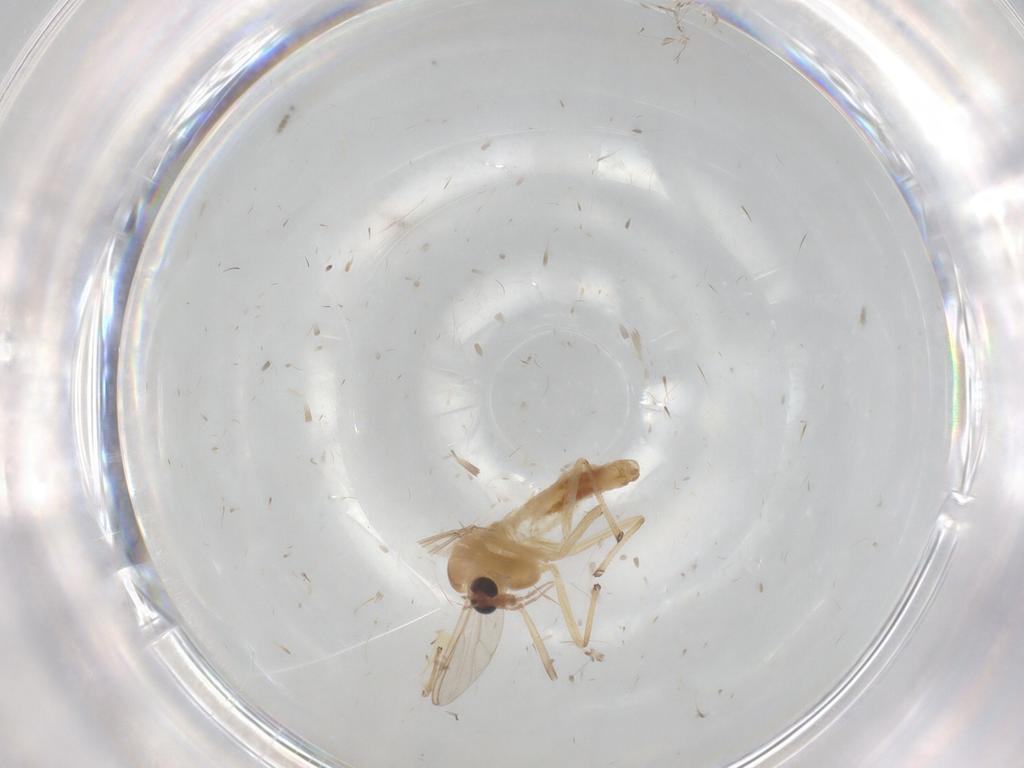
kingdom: Animalia
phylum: Arthropoda
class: Insecta
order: Diptera
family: Chironomidae
